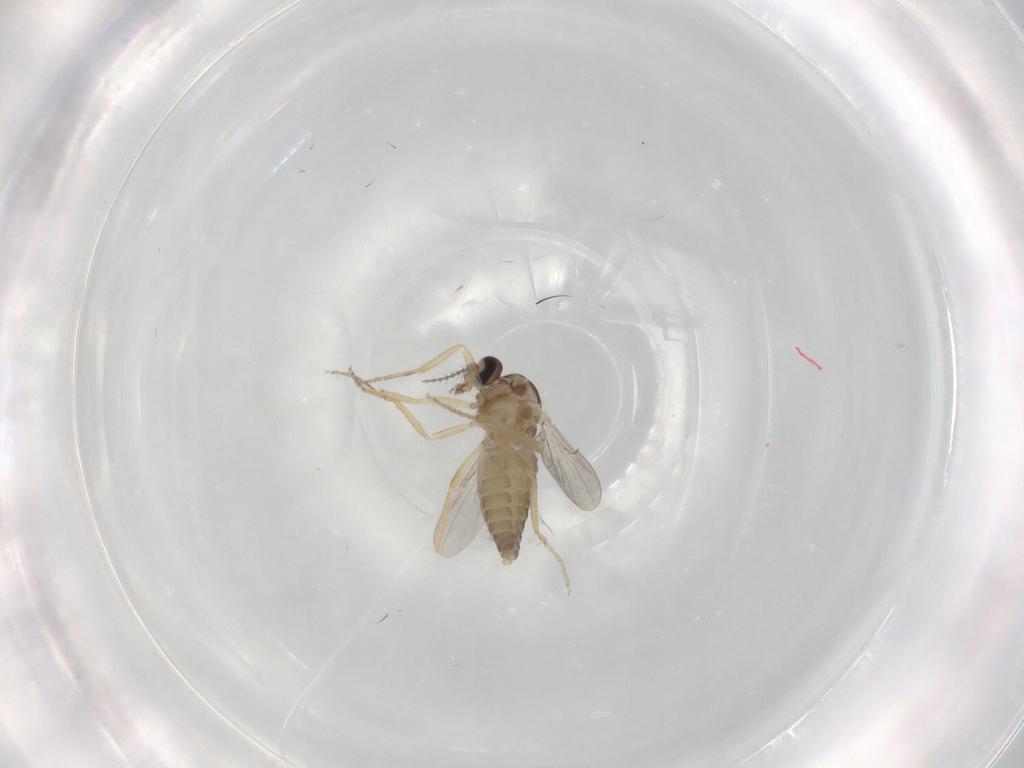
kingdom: Animalia
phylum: Arthropoda
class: Insecta
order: Diptera
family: Ceratopogonidae
